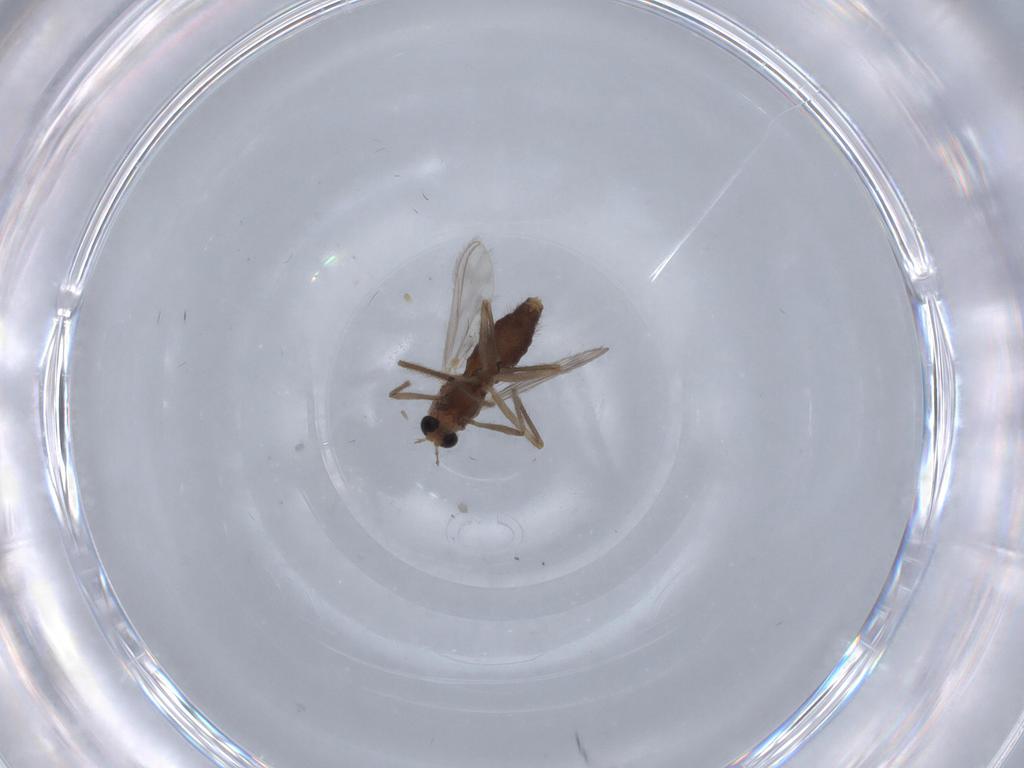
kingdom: Animalia
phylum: Arthropoda
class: Insecta
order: Diptera
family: Chironomidae
